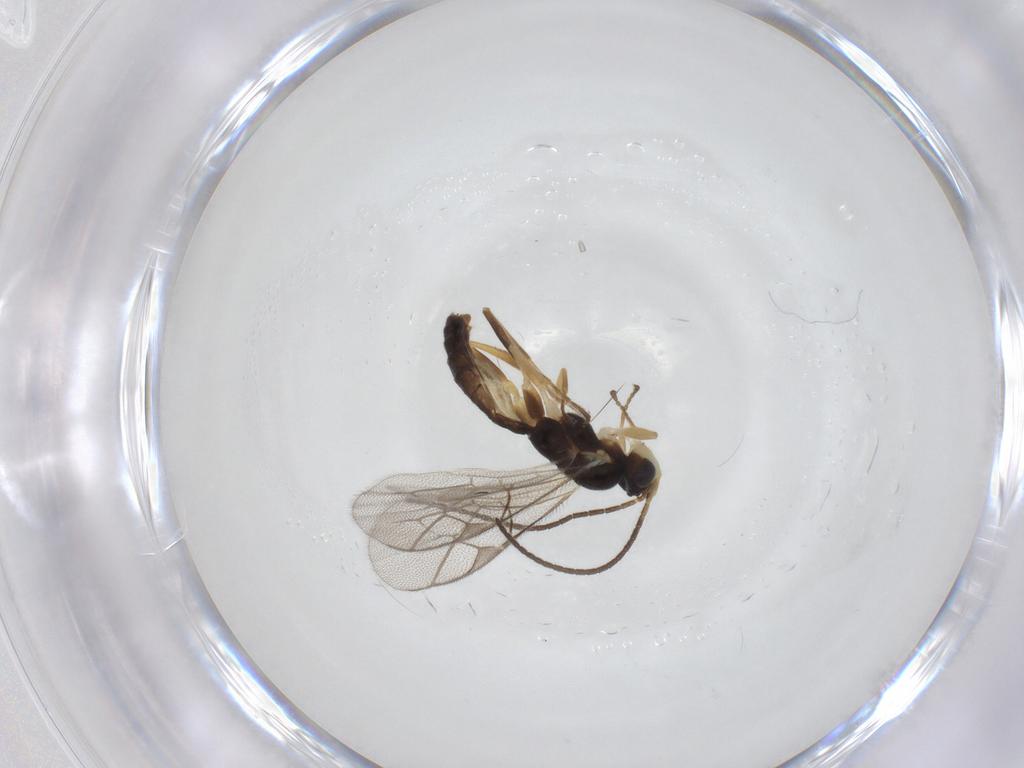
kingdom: Animalia
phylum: Arthropoda
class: Insecta
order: Hymenoptera
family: Ichneumonidae
